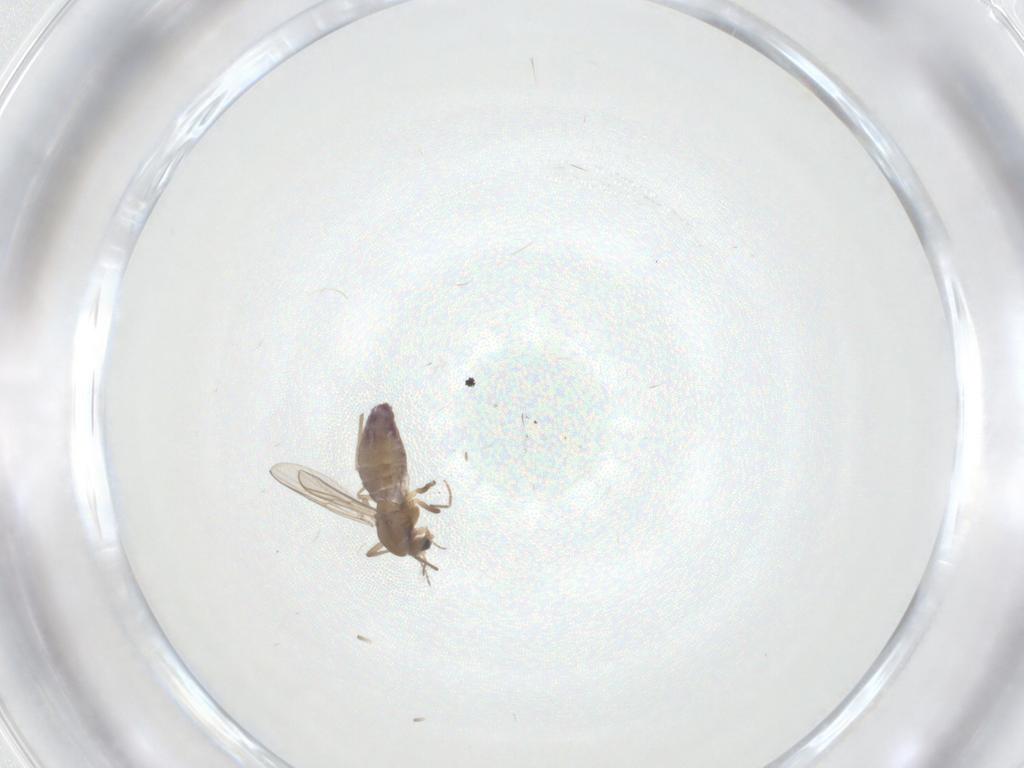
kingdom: Animalia
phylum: Arthropoda
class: Insecta
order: Diptera
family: Chironomidae
